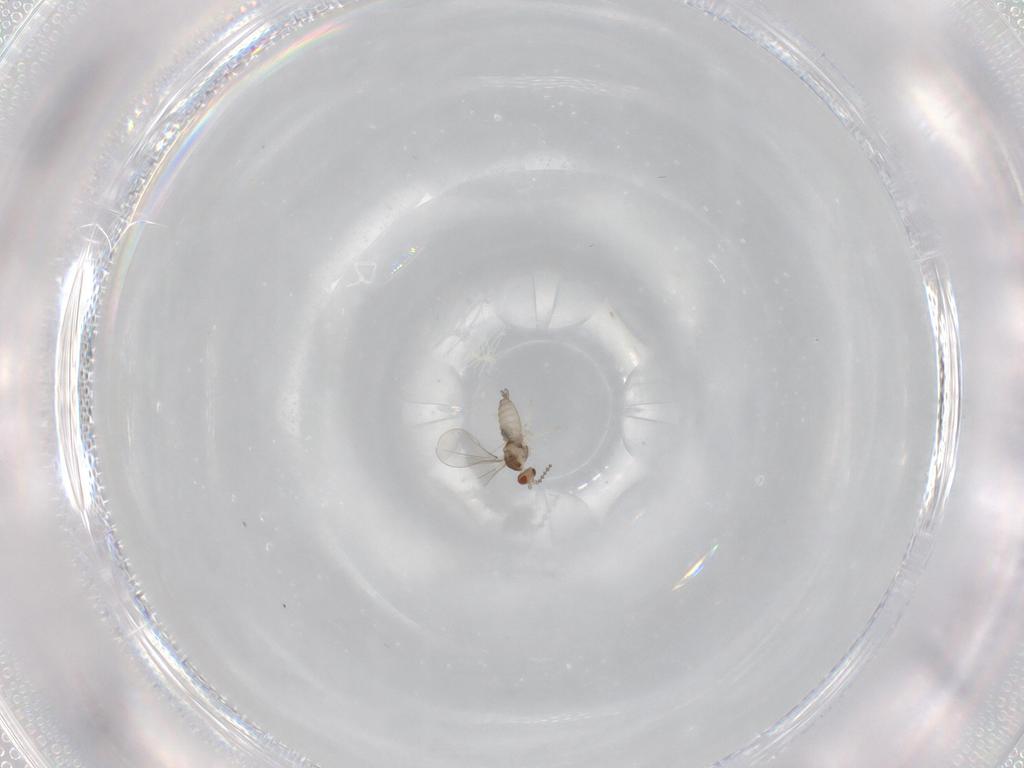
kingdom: Animalia
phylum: Arthropoda
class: Insecta
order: Diptera
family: Cecidomyiidae
